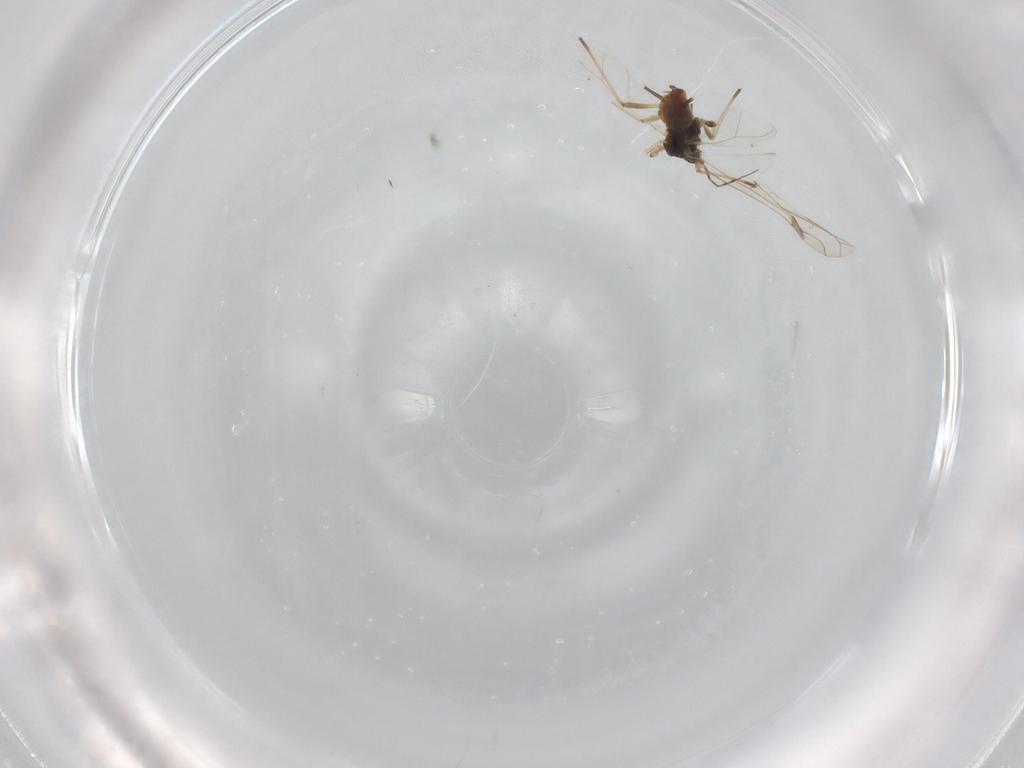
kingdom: Animalia
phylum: Arthropoda
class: Insecta
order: Hemiptera
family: Aphididae
